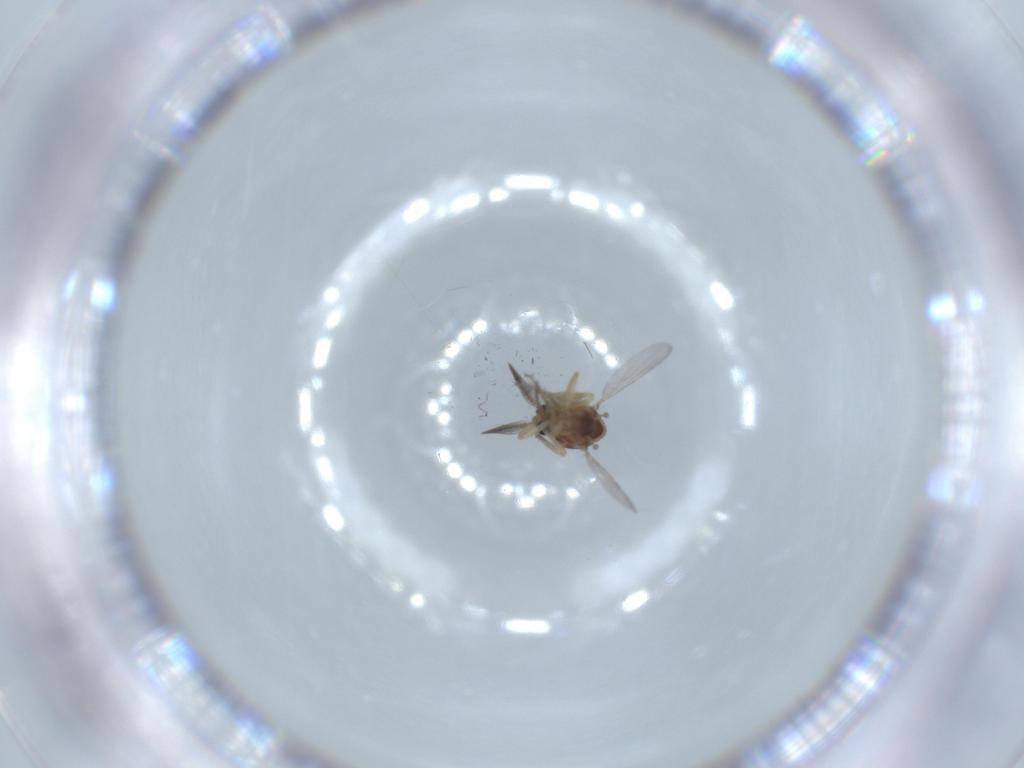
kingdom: Animalia
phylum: Arthropoda
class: Insecta
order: Diptera
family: Ceratopogonidae
